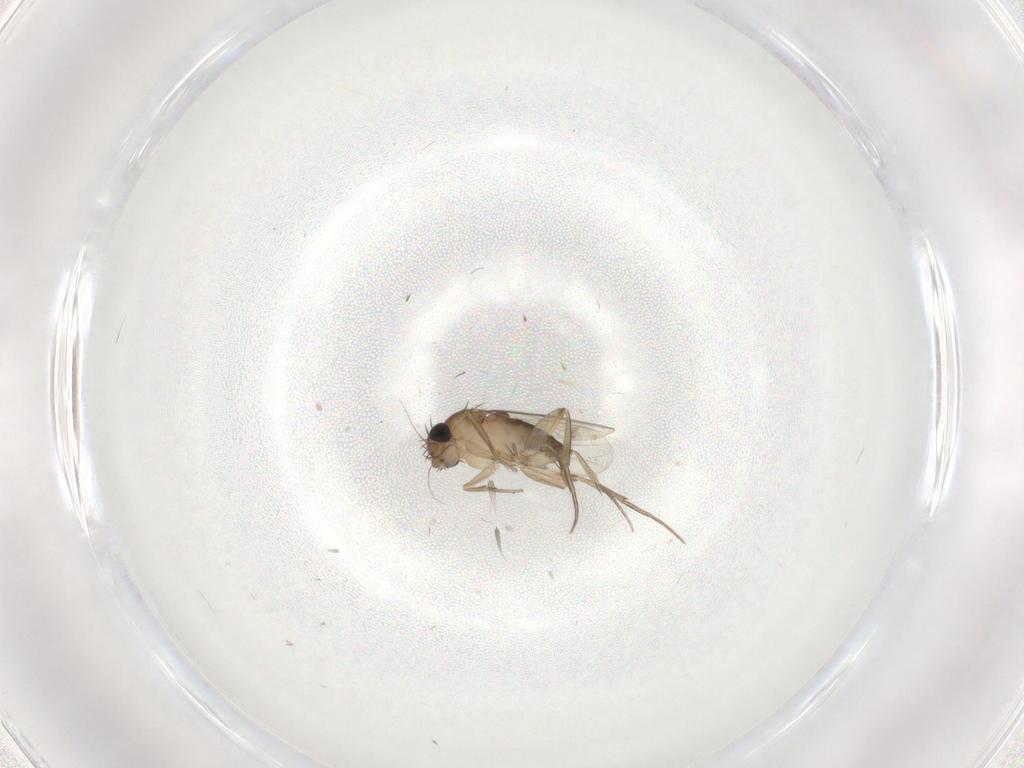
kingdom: Animalia
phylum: Arthropoda
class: Insecta
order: Diptera
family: Phoridae
